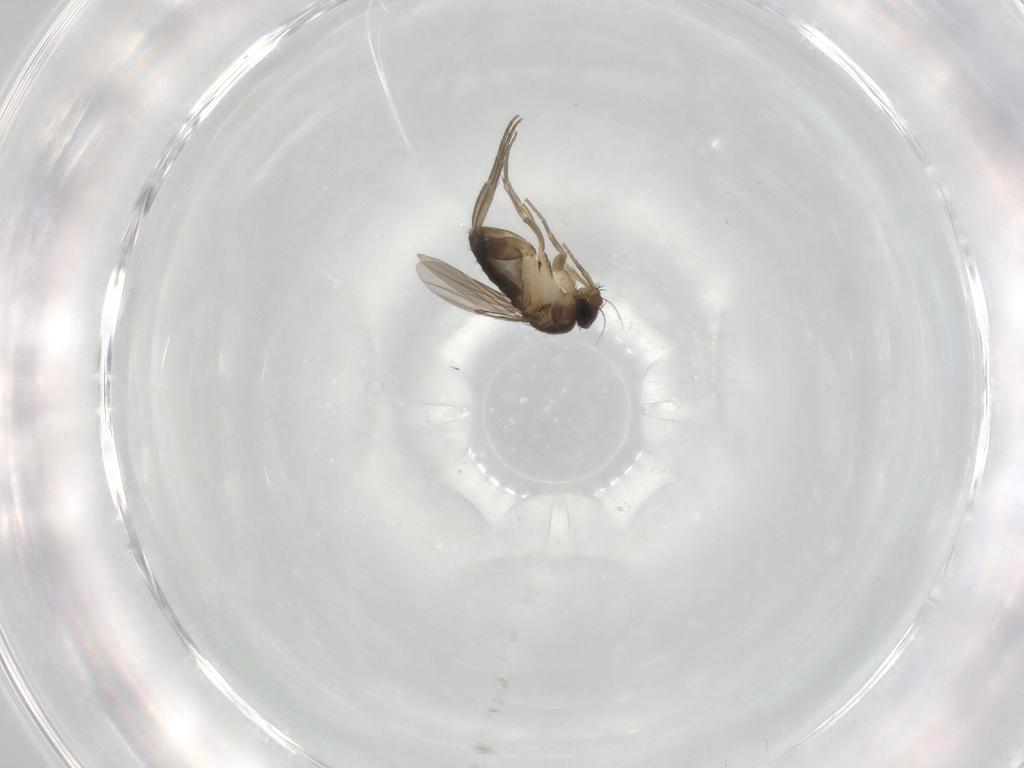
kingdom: Animalia
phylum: Arthropoda
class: Insecta
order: Diptera
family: Phoridae
